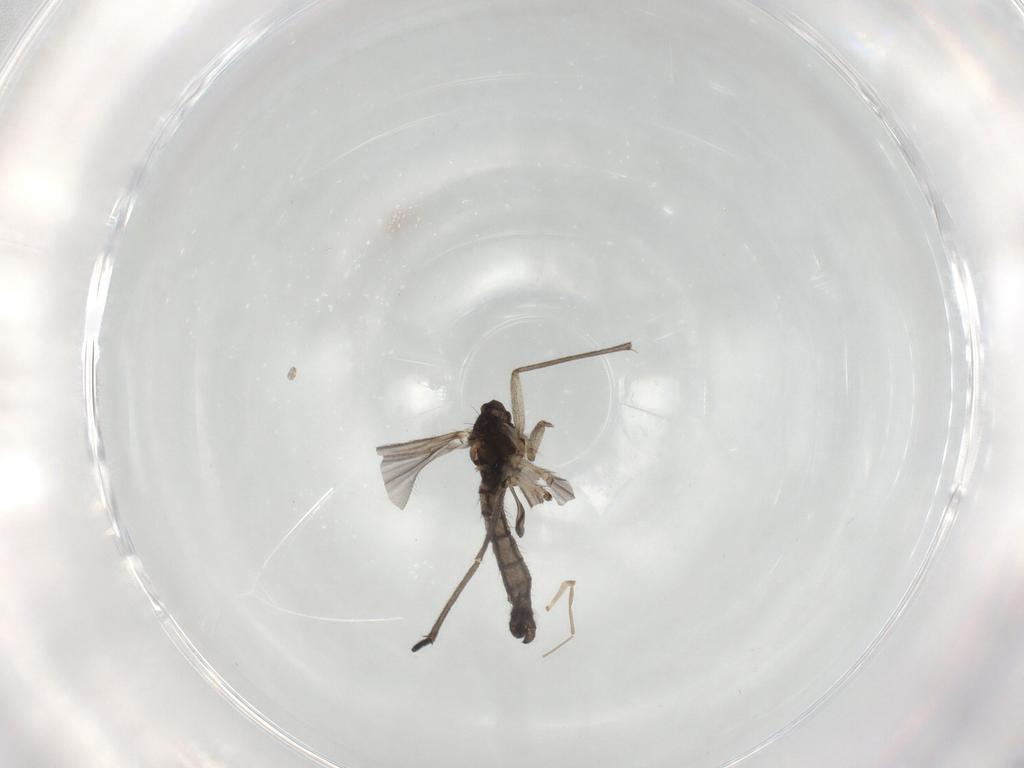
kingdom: Animalia
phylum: Arthropoda
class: Insecta
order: Diptera
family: Sciaridae
